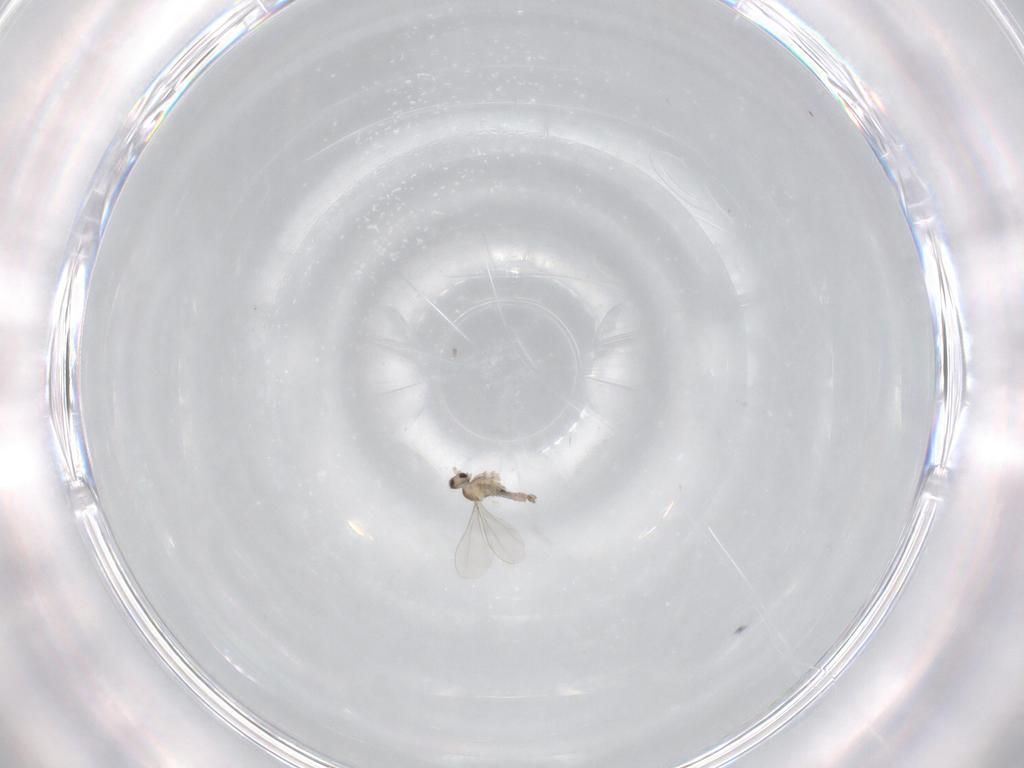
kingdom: Animalia
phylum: Arthropoda
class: Insecta
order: Diptera
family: Cecidomyiidae
